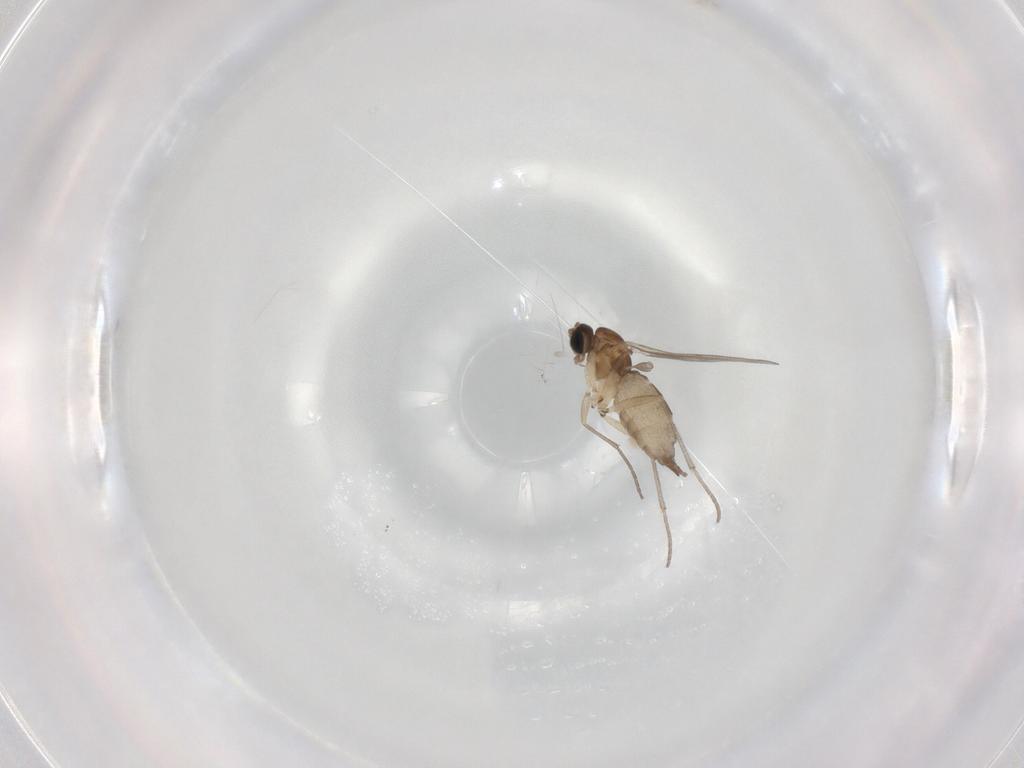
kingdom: Animalia
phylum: Arthropoda
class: Insecta
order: Diptera
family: Sciaridae
